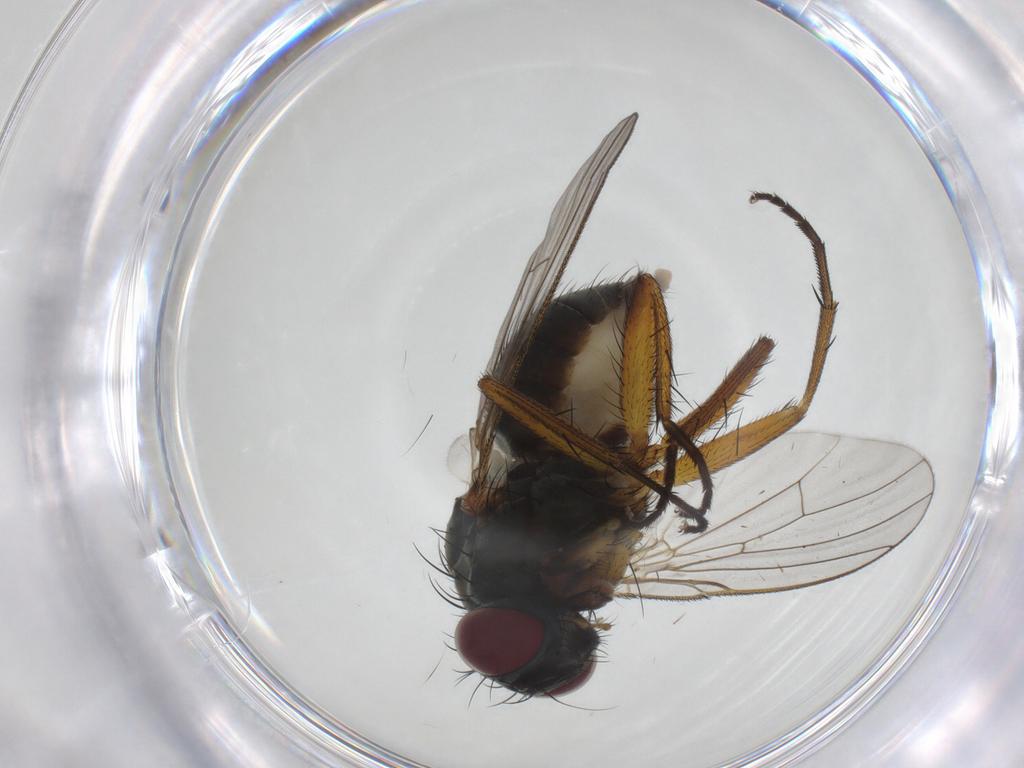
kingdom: Animalia
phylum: Arthropoda
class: Insecta
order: Diptera
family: Muscidae
